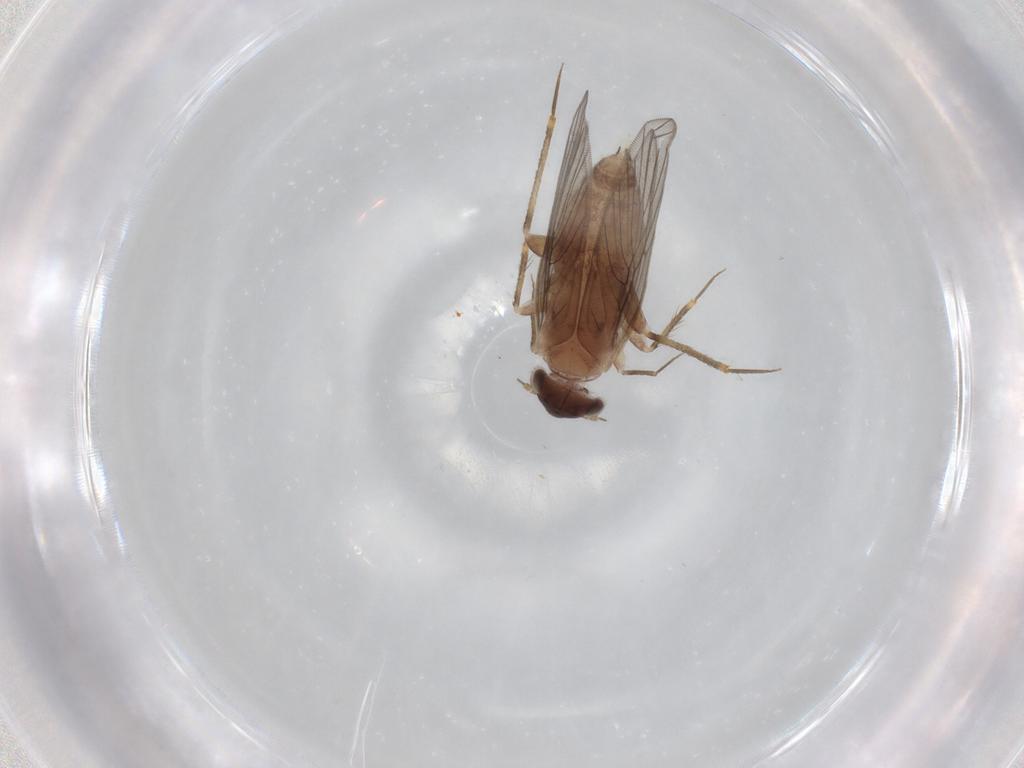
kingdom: Animalia
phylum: Arthropoda
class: Insecta
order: Psocodea
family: Lepidopsocidae
